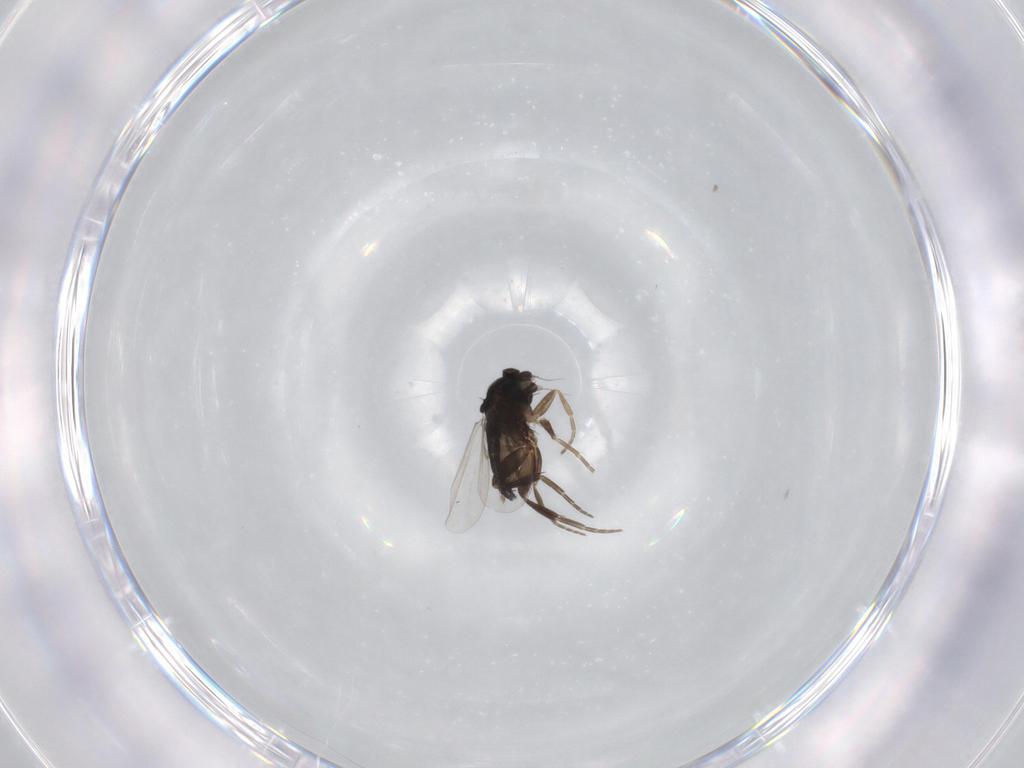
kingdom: Animalia
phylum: Arthropoda
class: Insecta
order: Diptera
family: Phoridae
